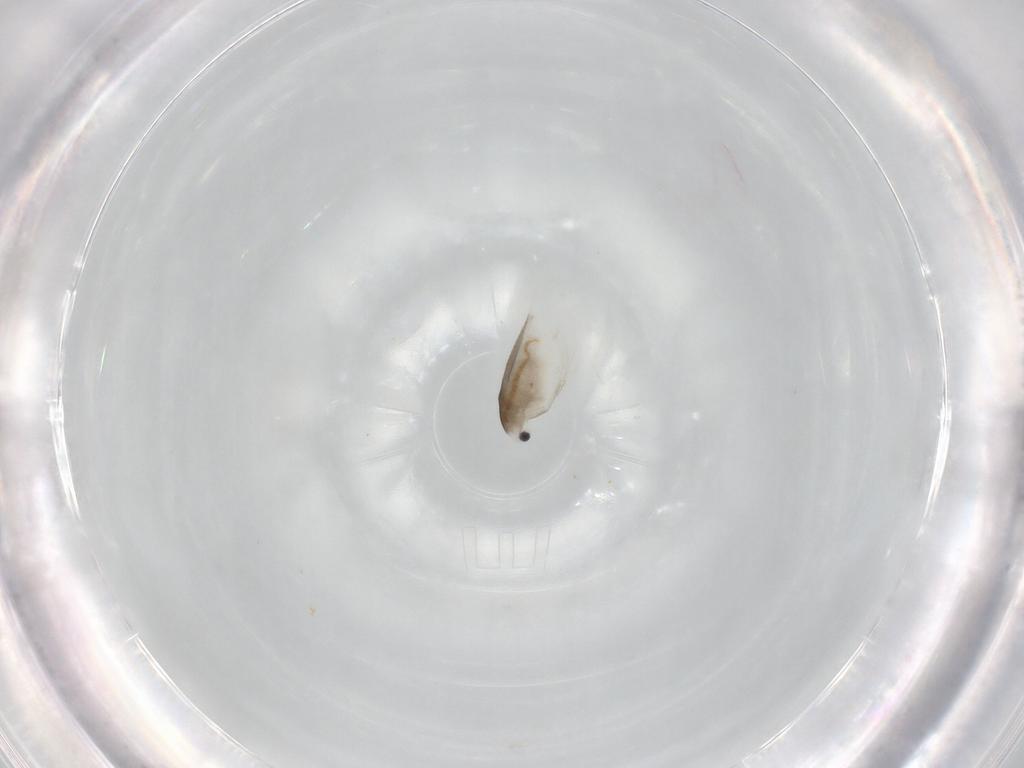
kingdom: Animalia
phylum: Arthropoda
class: Branchiopoda
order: Diplostraca
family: Daphniidae
